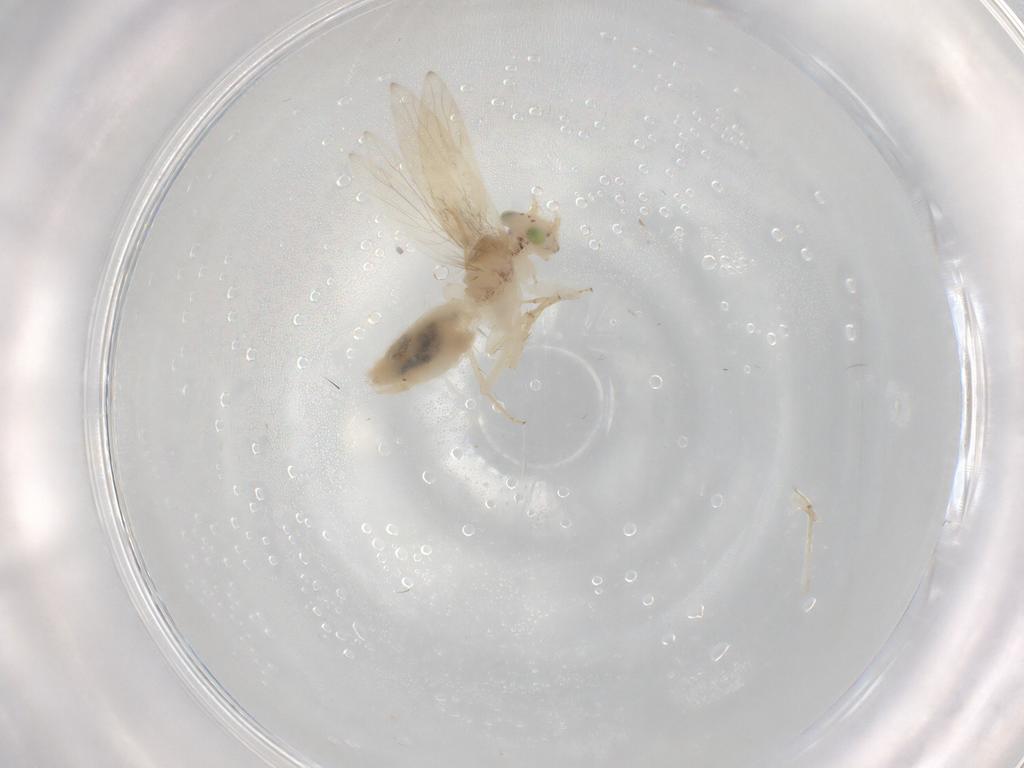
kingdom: Animalia
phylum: Arthropoda
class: Insecta
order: Psocodea
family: Lepidopsocidae
